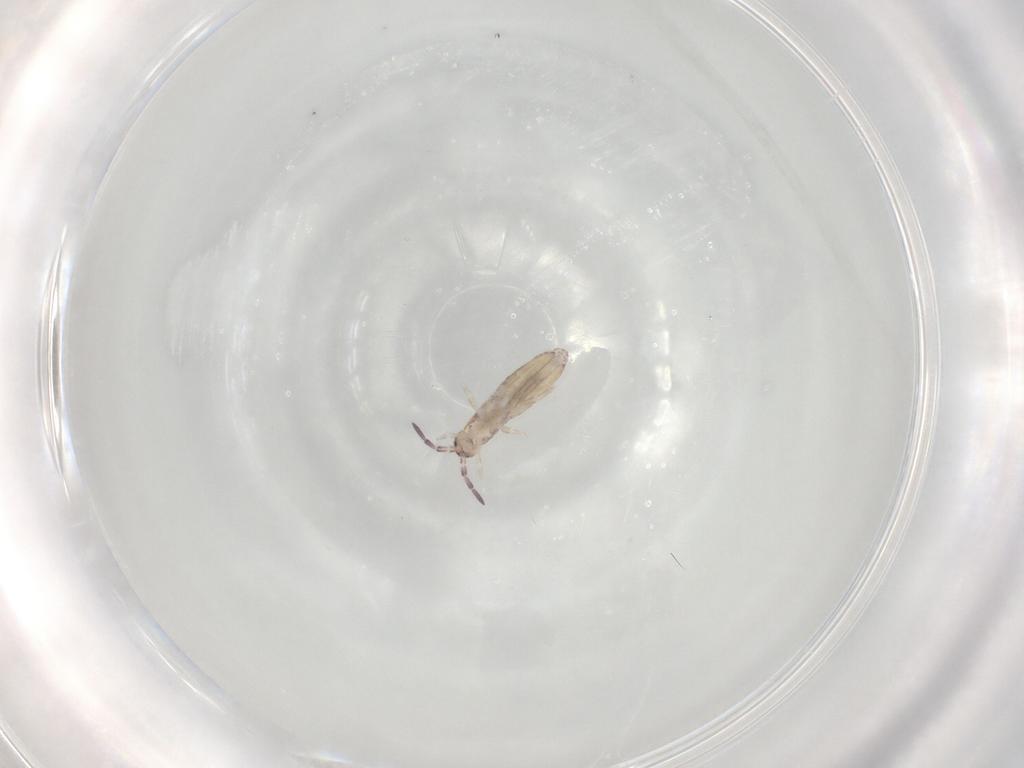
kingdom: Animalia
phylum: Arthropoda
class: Collembola
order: Entomobryomorpha
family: Entomobryidae
